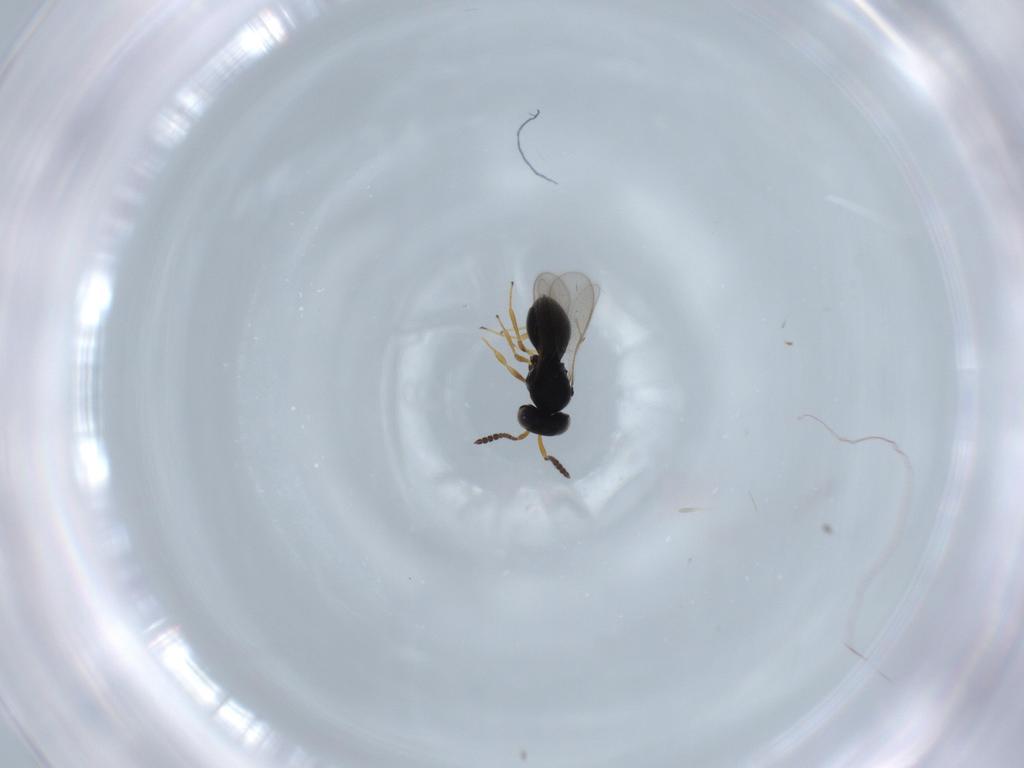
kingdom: Animalia
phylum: Arthropoda
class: Insecta
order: Hymenoptera
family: Scelionidae
